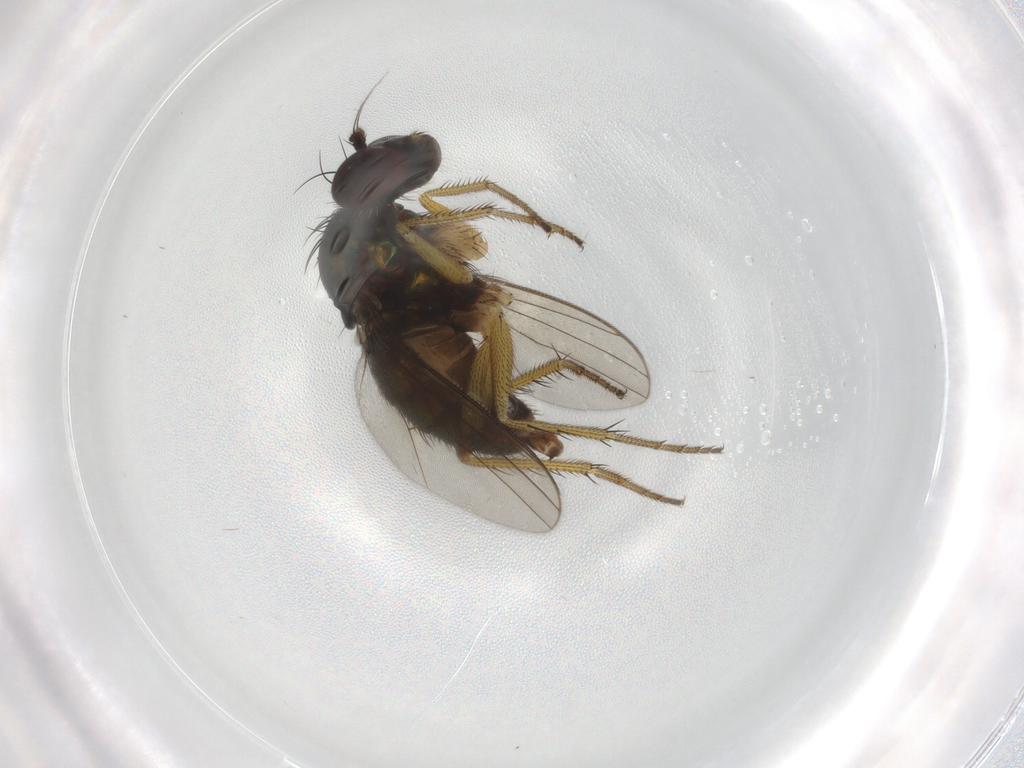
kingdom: Animalia
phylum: Arthropoda
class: Insecta
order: Diptera
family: Dolichopodidae
